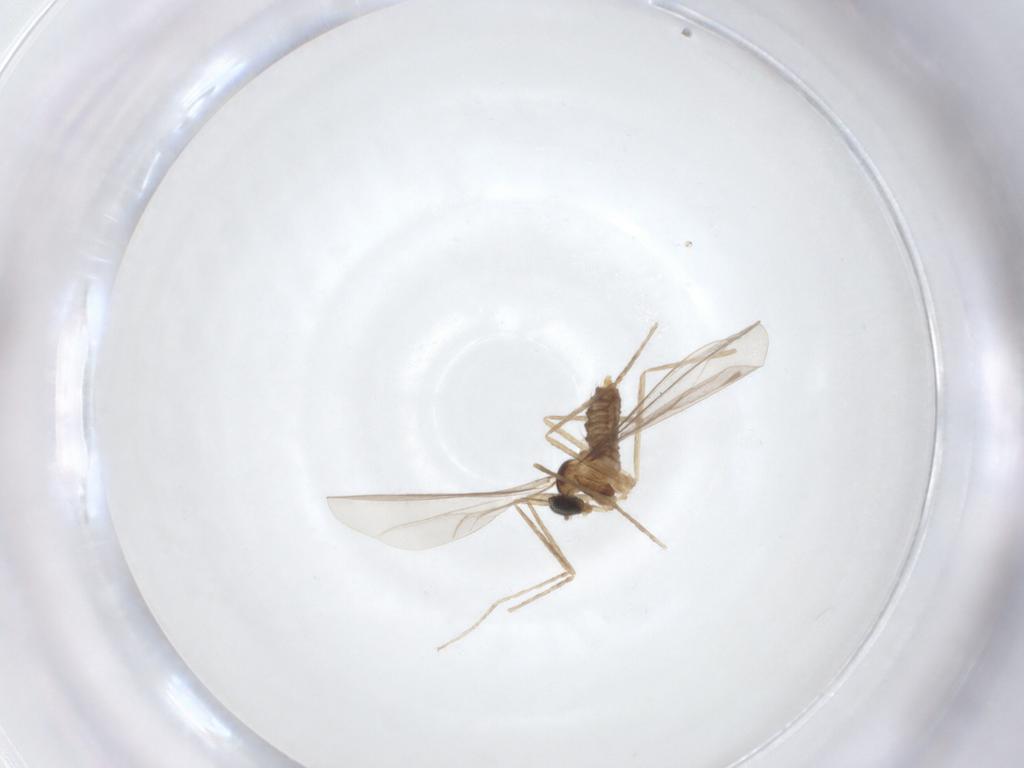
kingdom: Animalia
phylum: Arthropoda
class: Insecta
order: Diptera
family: Cecidomyiidae
